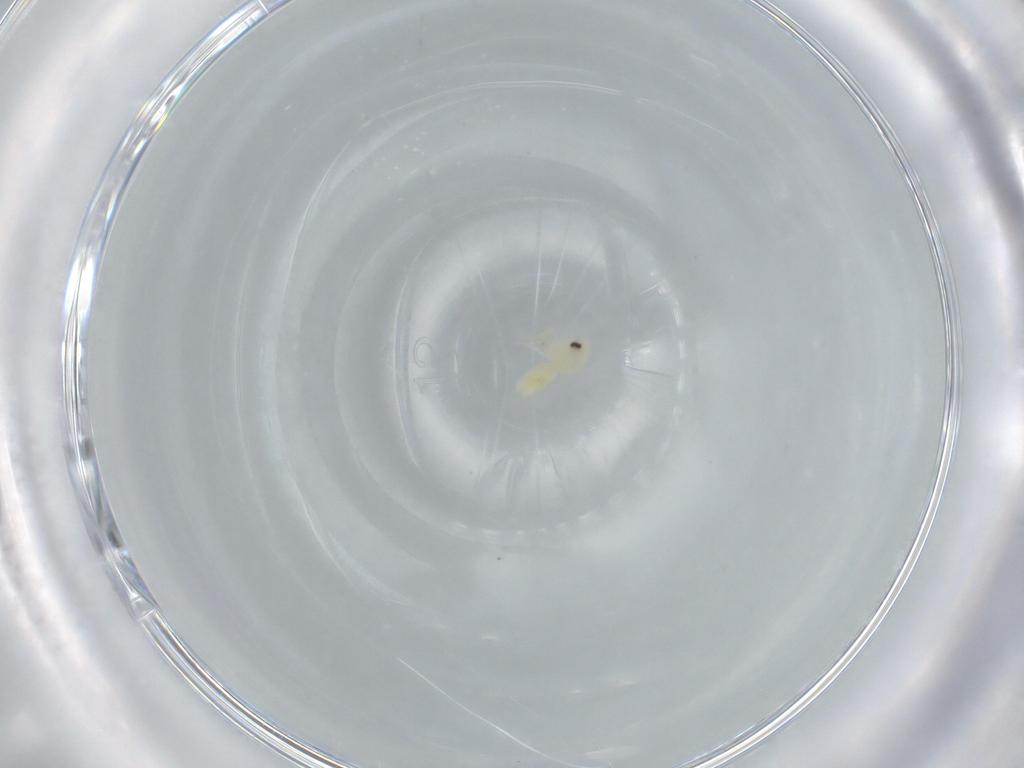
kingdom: Animalia
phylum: Arthropoda
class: Insecta
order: Hemiptera
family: Aleyrodidae
